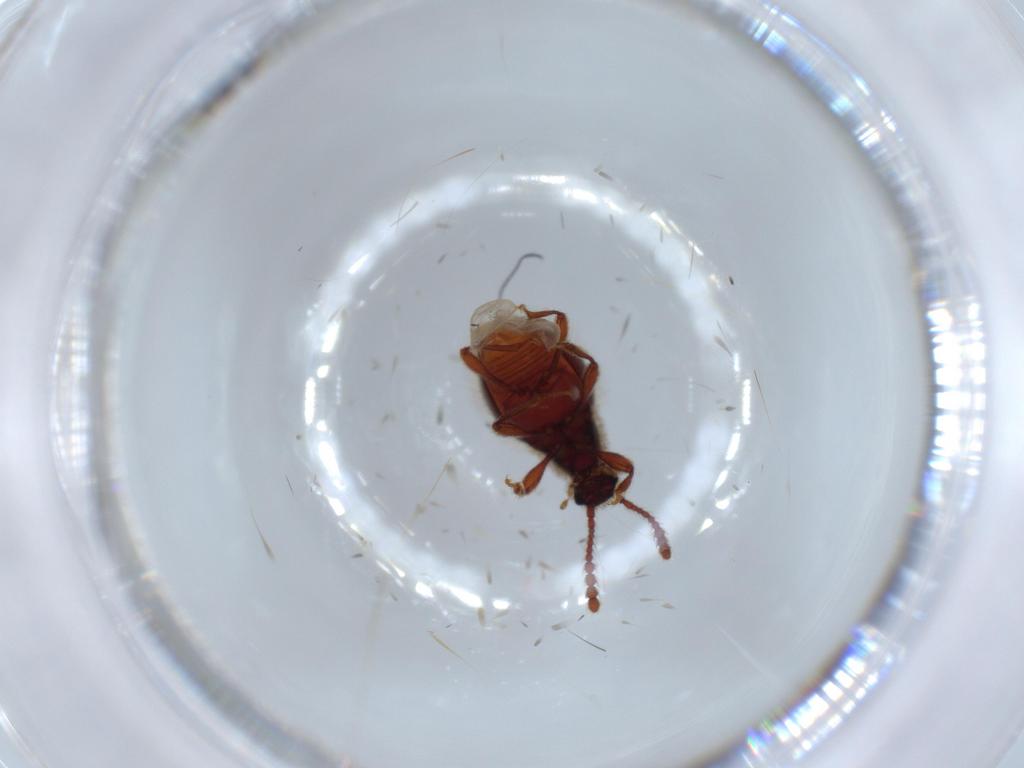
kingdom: Animalia
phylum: Arthropoda
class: Insecta
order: Coleoptera
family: Staphylinidae
